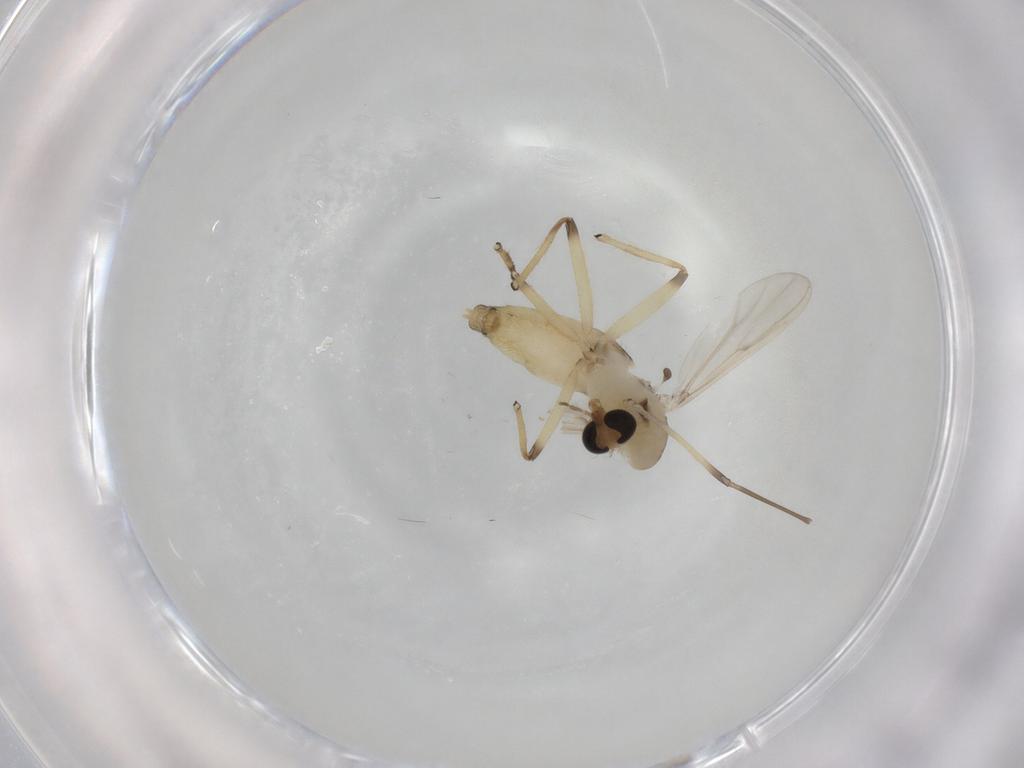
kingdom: Animalia
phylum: Arthropoda
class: Insecta
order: Diptera
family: Chironomidae
